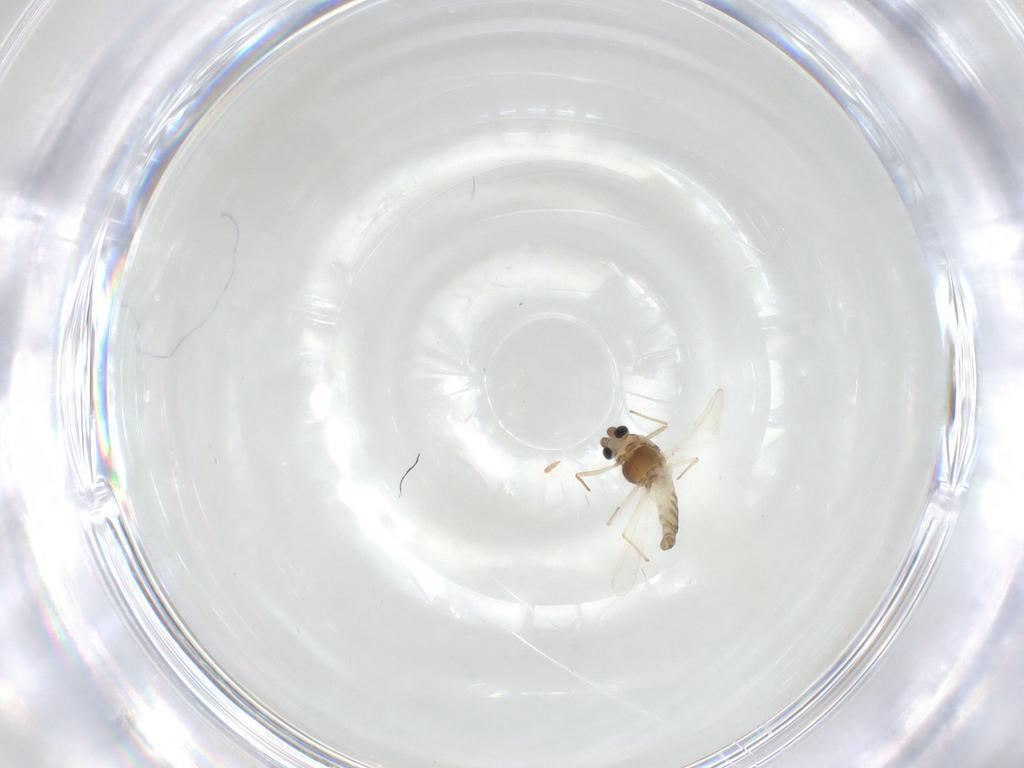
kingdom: Animalia
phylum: Arthropoda
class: Insecta
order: Diptera
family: Chironomidae
